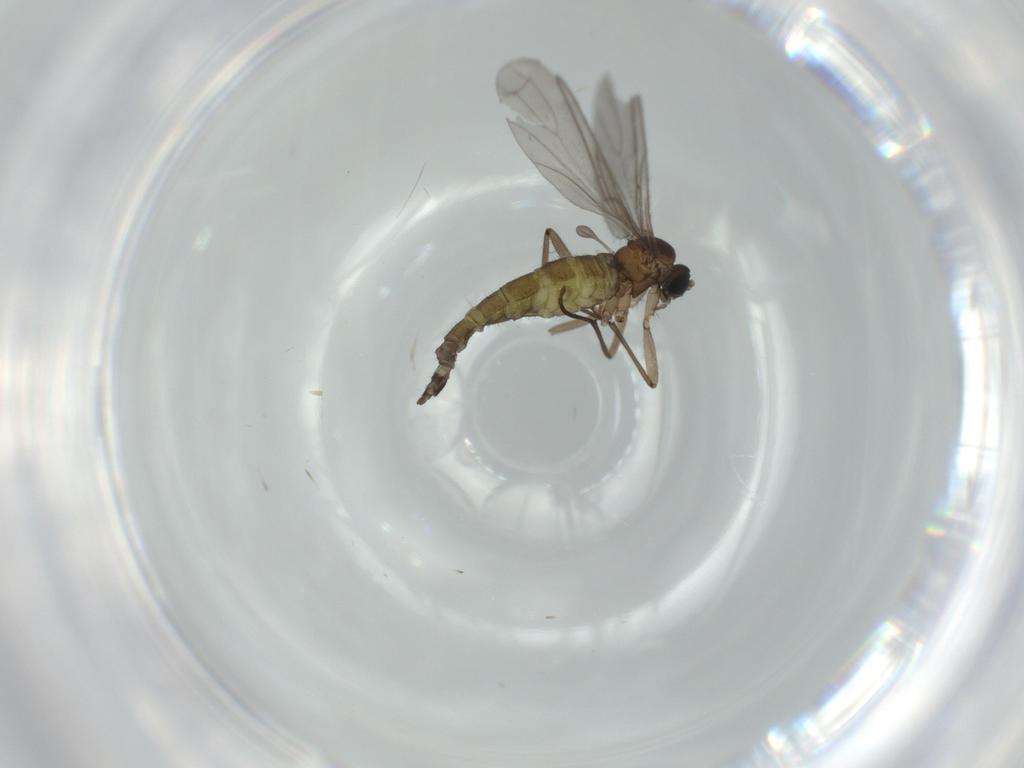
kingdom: Animalia
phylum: Arthropoda
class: Insecta
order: Diptera
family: Sciaridae
